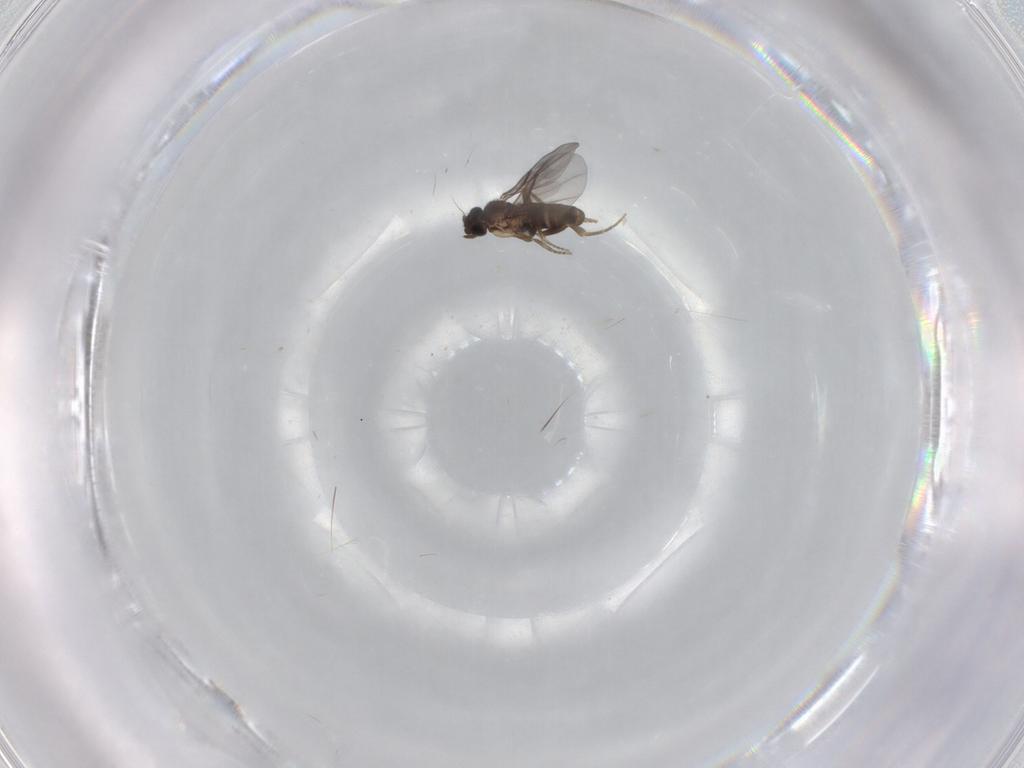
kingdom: Animalia
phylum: Arthropoda
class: Insecta
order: Diptera
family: Tabanidae
